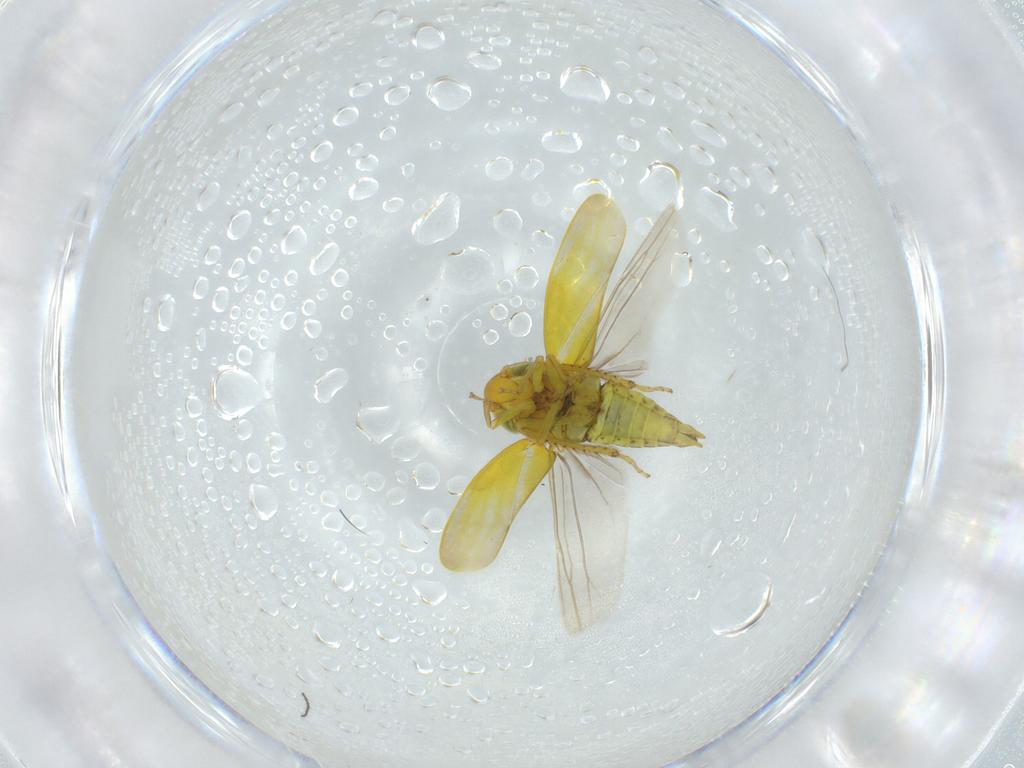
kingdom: Animalia
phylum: Arthropoda
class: Insecta
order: Hemiptera
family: Cicadellidae
